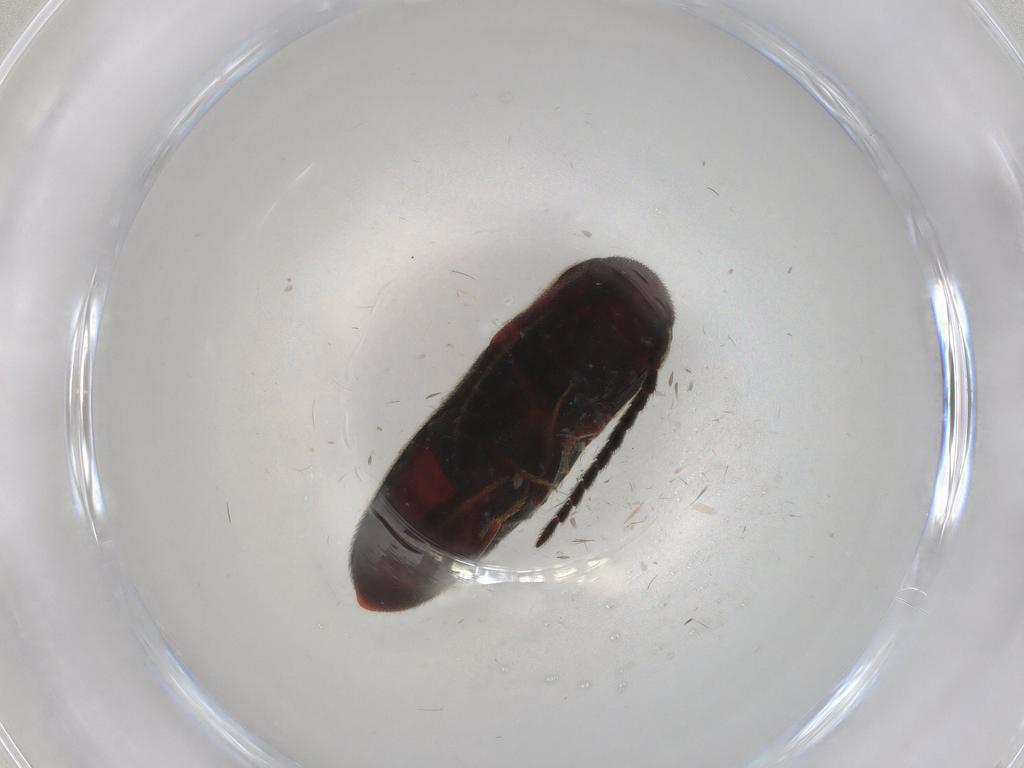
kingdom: Animalia
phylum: Arthropoda
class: Insecta
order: Coleoptera
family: Eucnemidae
